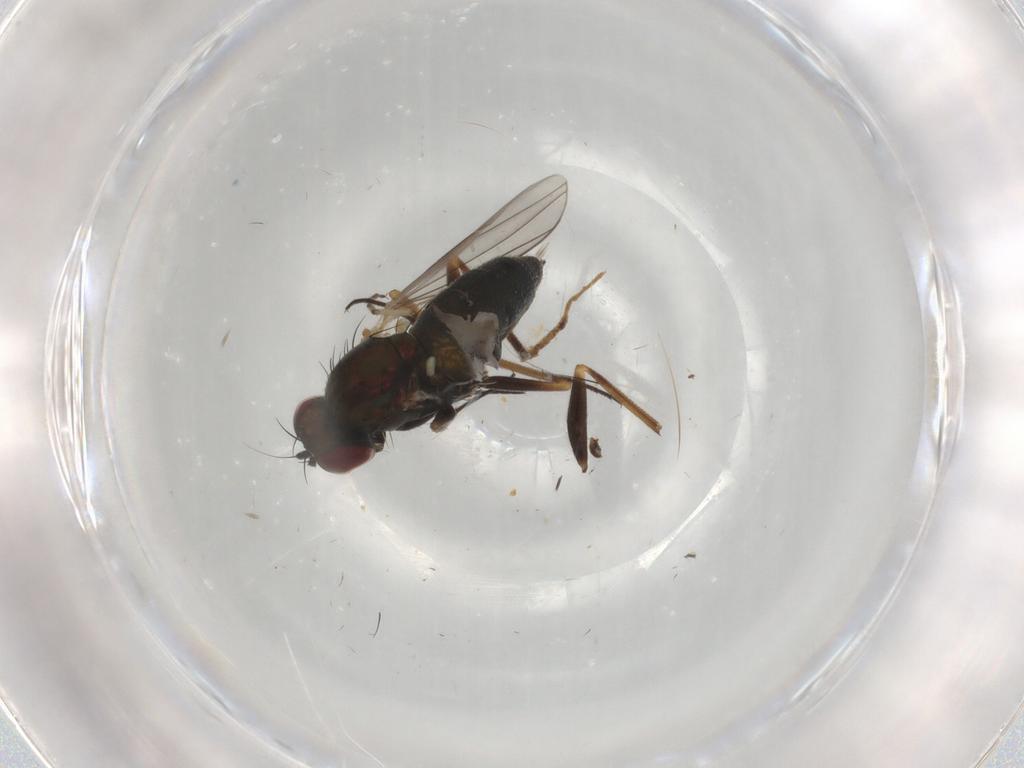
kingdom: Animalia
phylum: Arthropoda
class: Insecta
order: Diptera
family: Dolichopodidae
